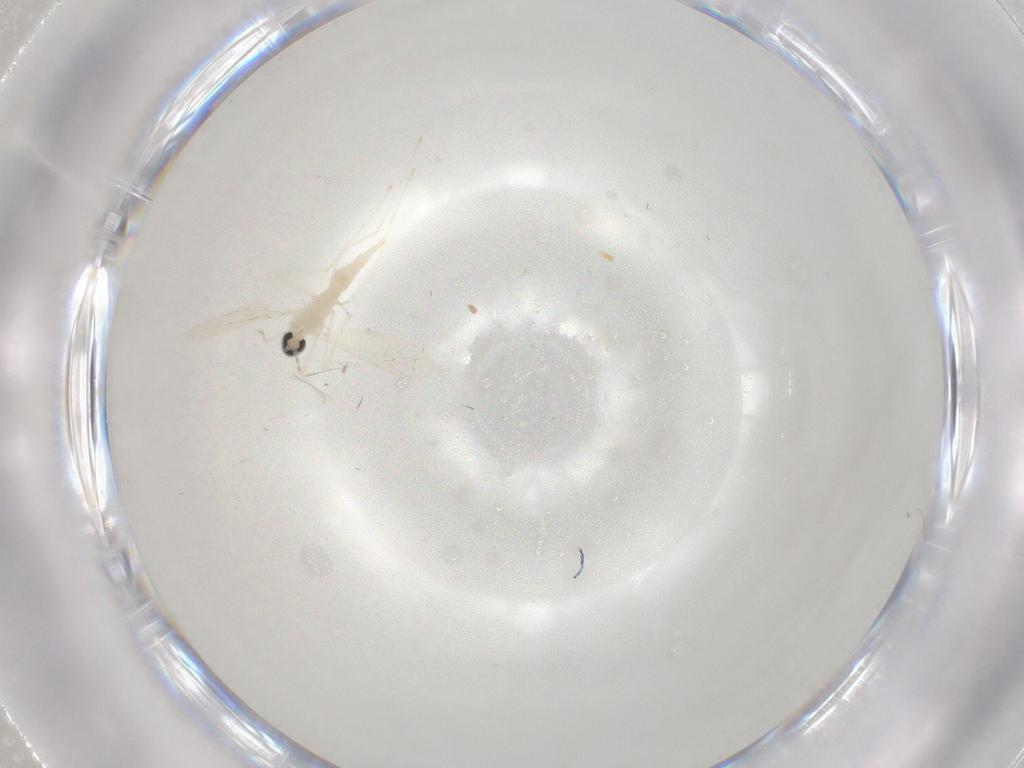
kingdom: Animalia
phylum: Arthropoda
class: Insecta
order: Diptera
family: Cecidomyiidae
